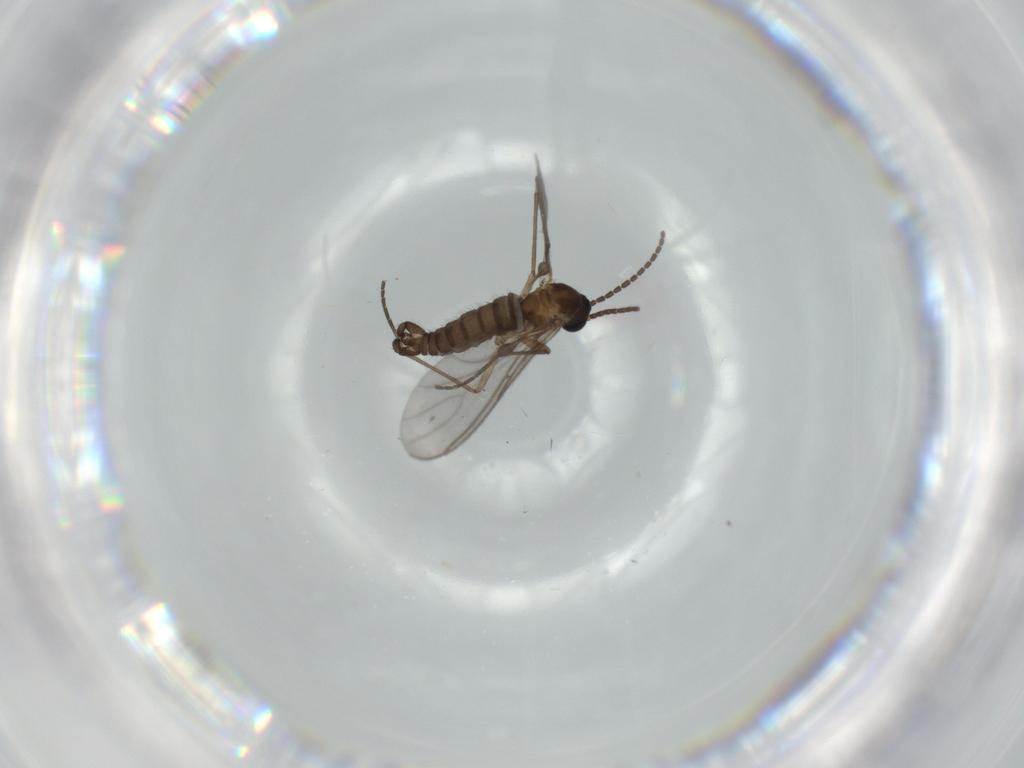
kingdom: Animalia
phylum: Arthropoda
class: Insecta
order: Diptera
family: Sciaridae
